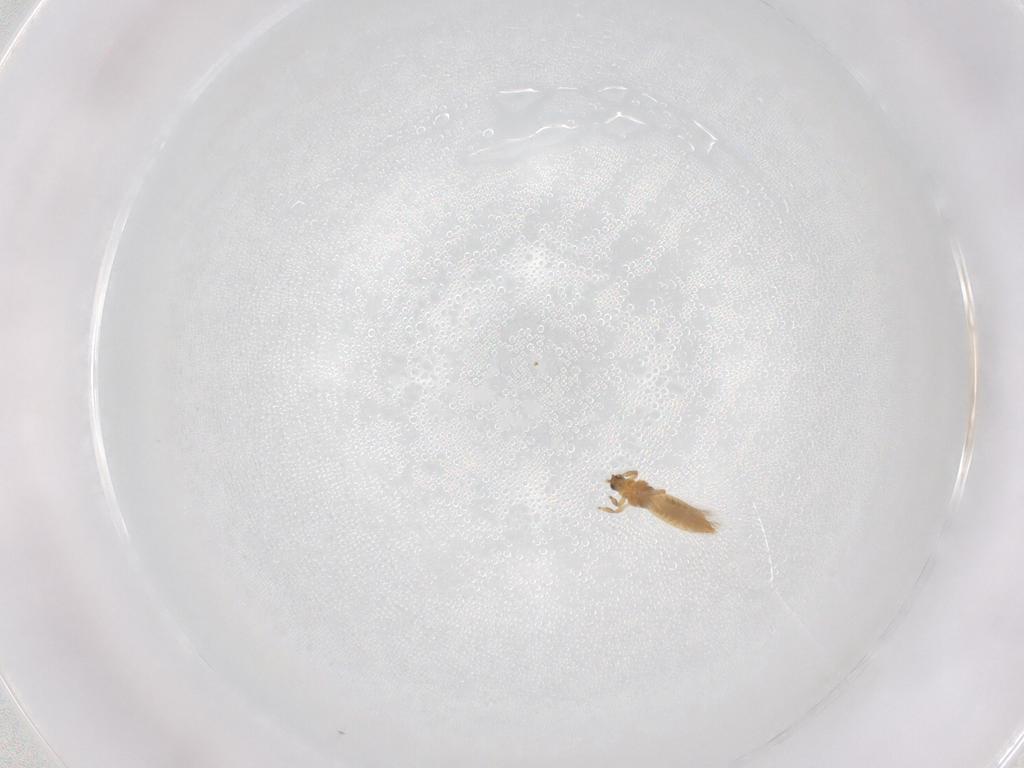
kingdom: Animalia
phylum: Arthropoda
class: Insecta
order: Thysanoptera
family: Thripidae
